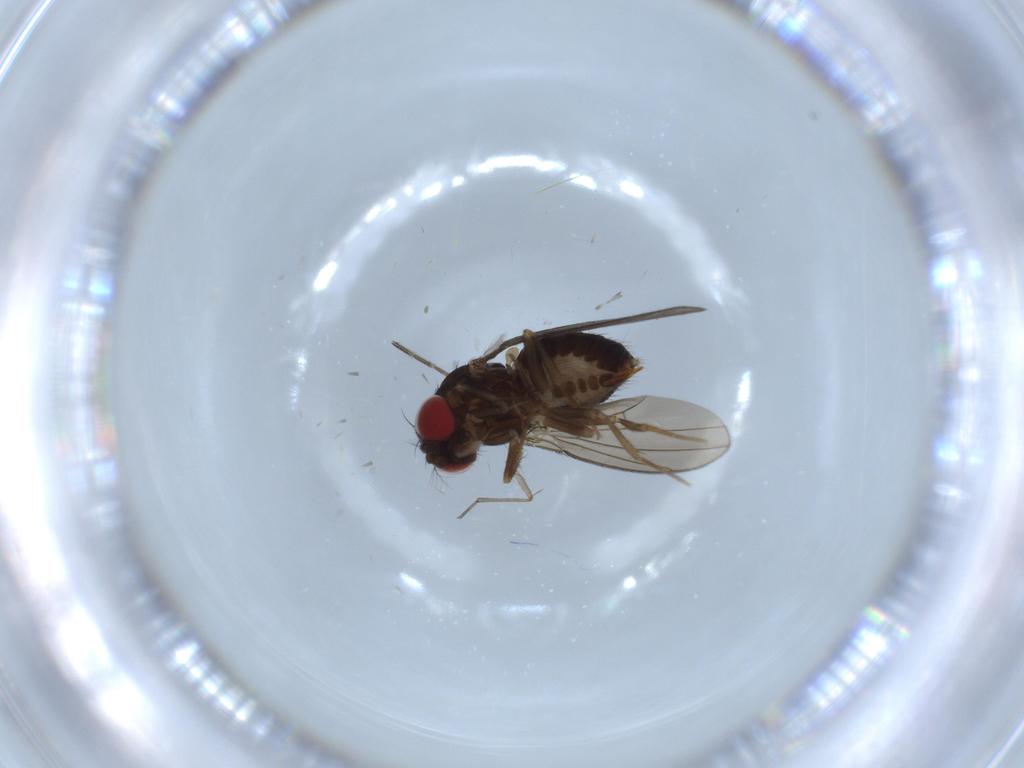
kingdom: Animalia
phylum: Arthropoda
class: Insecta
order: Diptera
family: Drosophilidae
